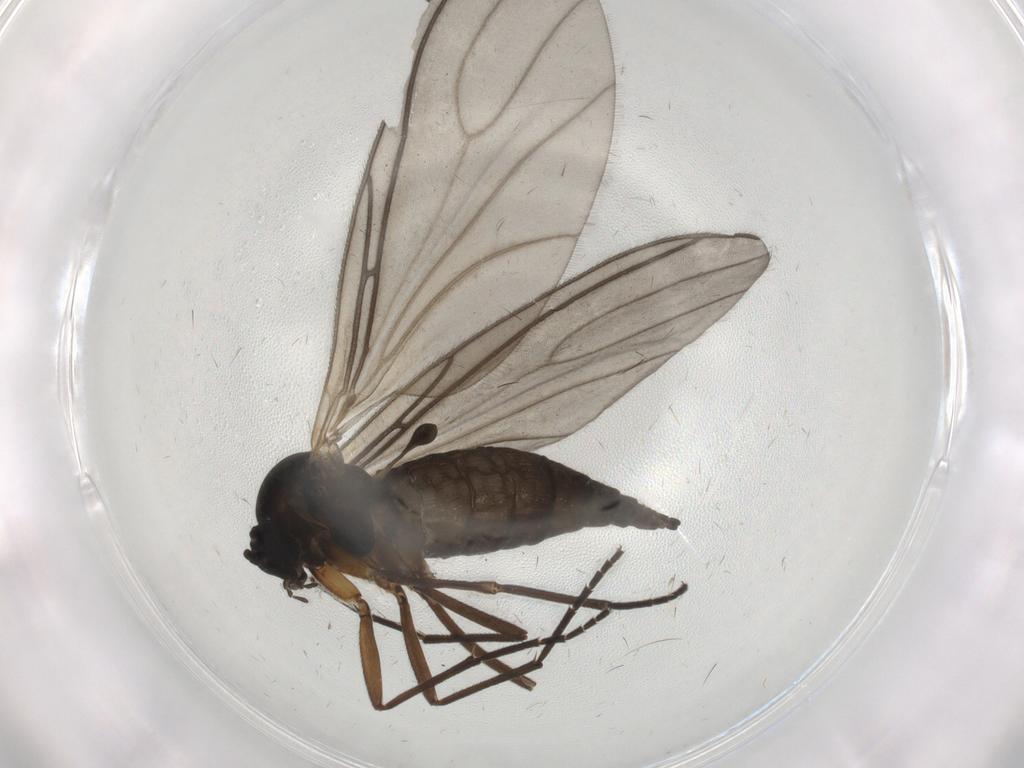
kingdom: Animalia
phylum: Arthropoda
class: Insecta
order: Diptera
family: Sciaridae
